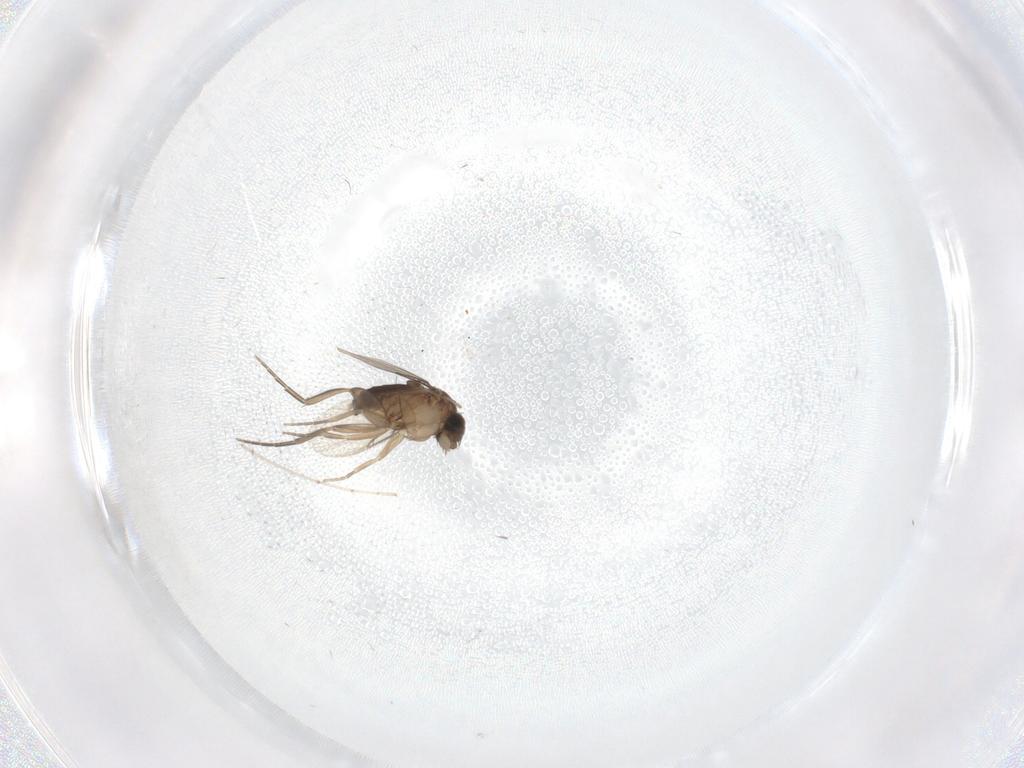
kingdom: Animalia
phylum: Arthropoda
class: Insecta
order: Diptera
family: Phoridae
